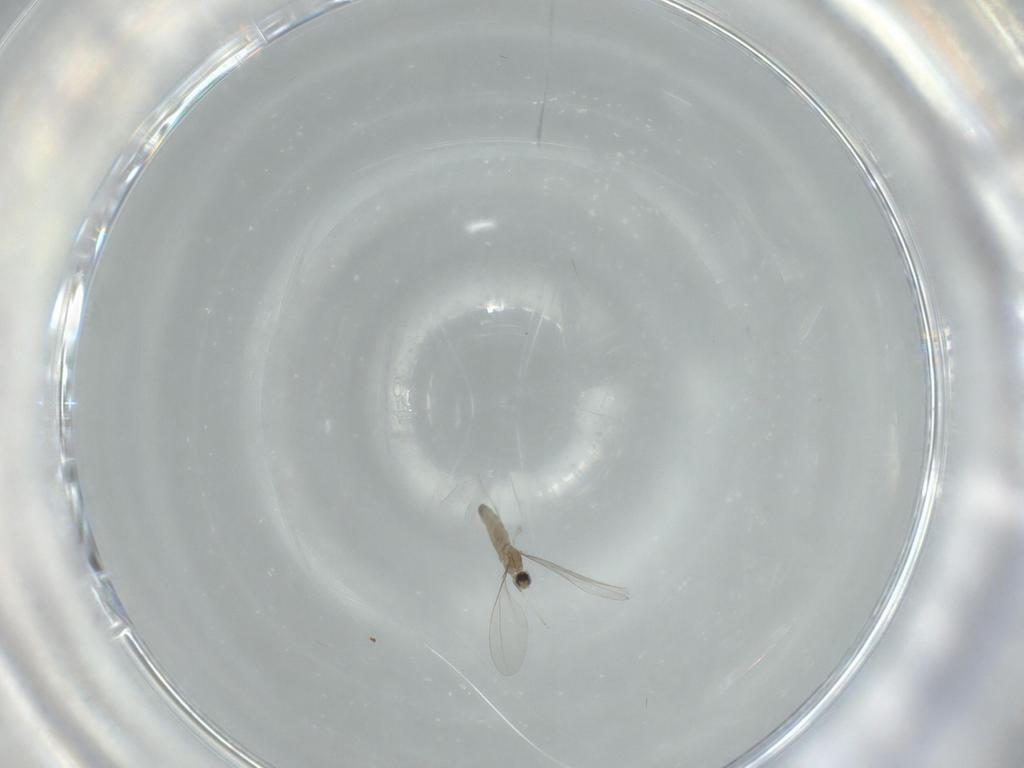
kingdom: Animalia
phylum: Arthropoda
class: Insecta
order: Diptera
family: Cecidomyiidae
